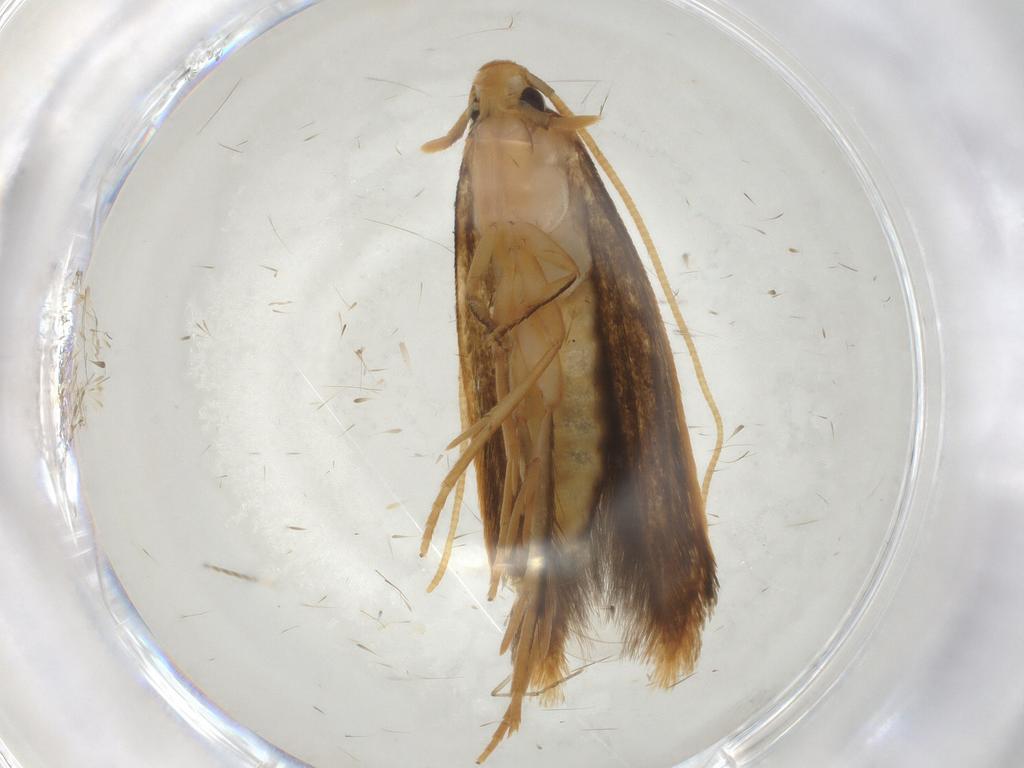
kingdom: Animalia
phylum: Arthropoda
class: Insecta
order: Lepidoptera
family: Tineidae
